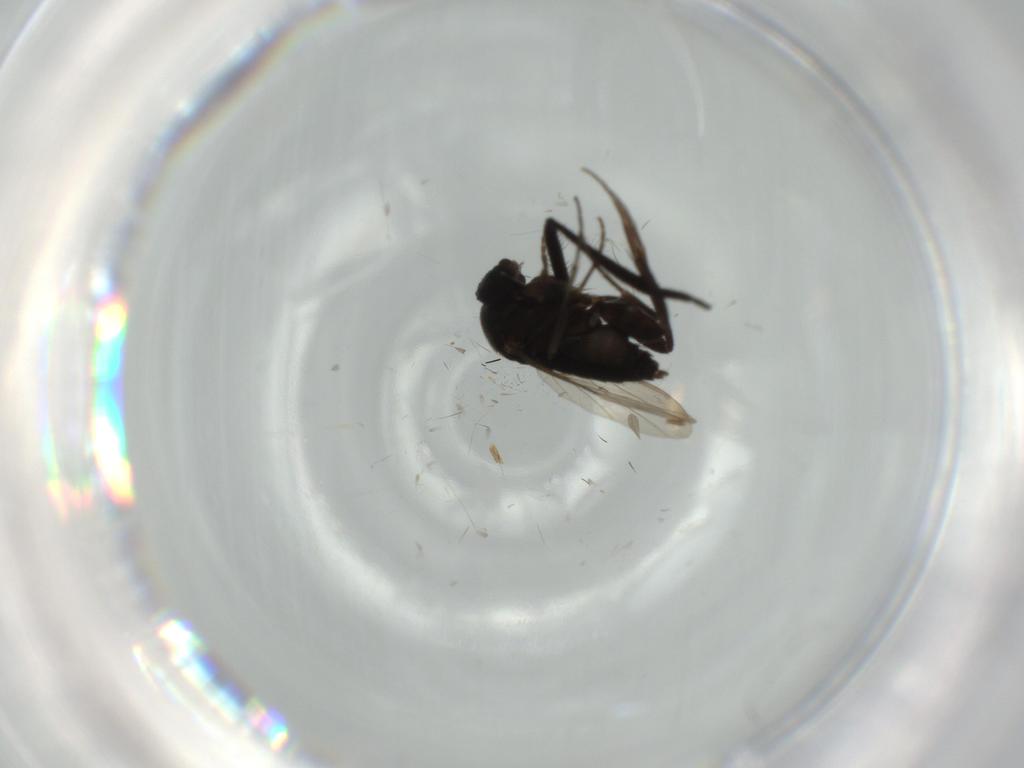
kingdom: Animalia
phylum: Arthropoda
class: Insecta
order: Diptera
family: Phoridae
